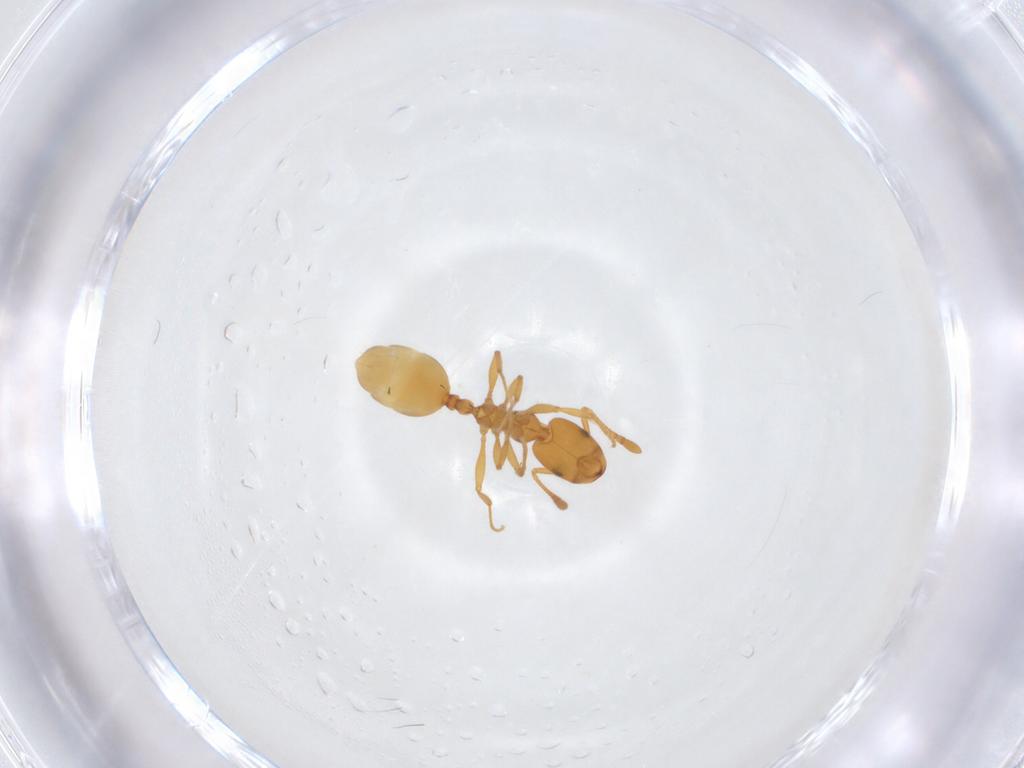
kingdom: Animalia
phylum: Arthropoda
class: Insecta
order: Hymenoptera
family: Formicidae
